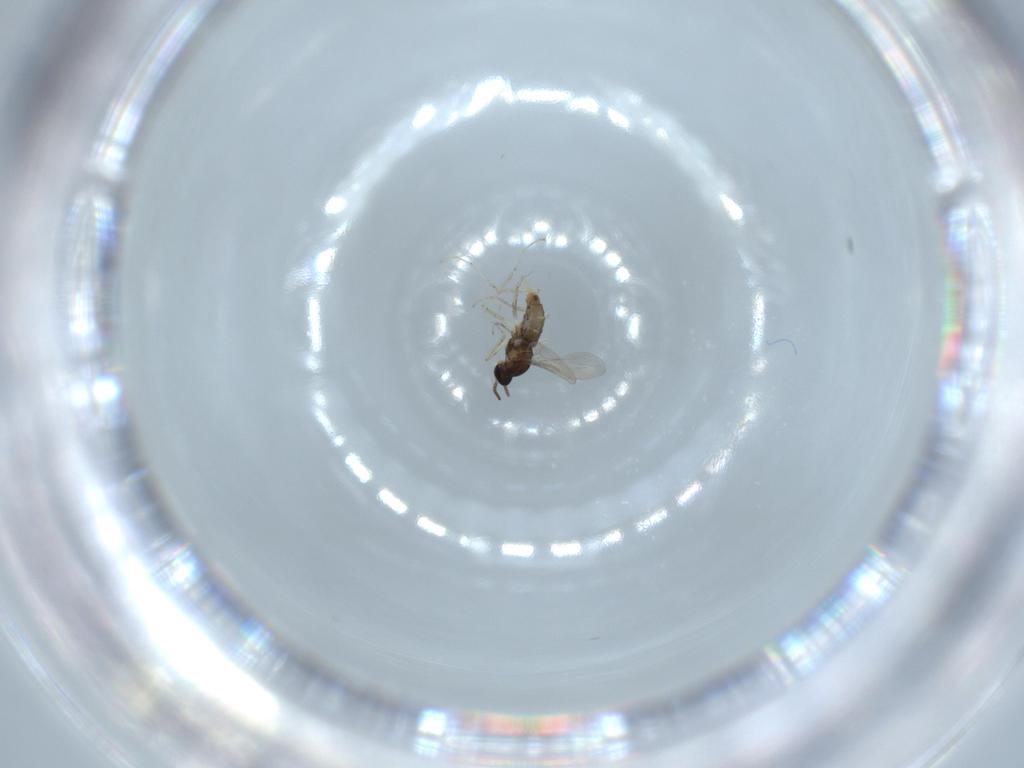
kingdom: Animalia
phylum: Arthropoda
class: Insecta
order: Diptera
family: Cecidomyiidae
